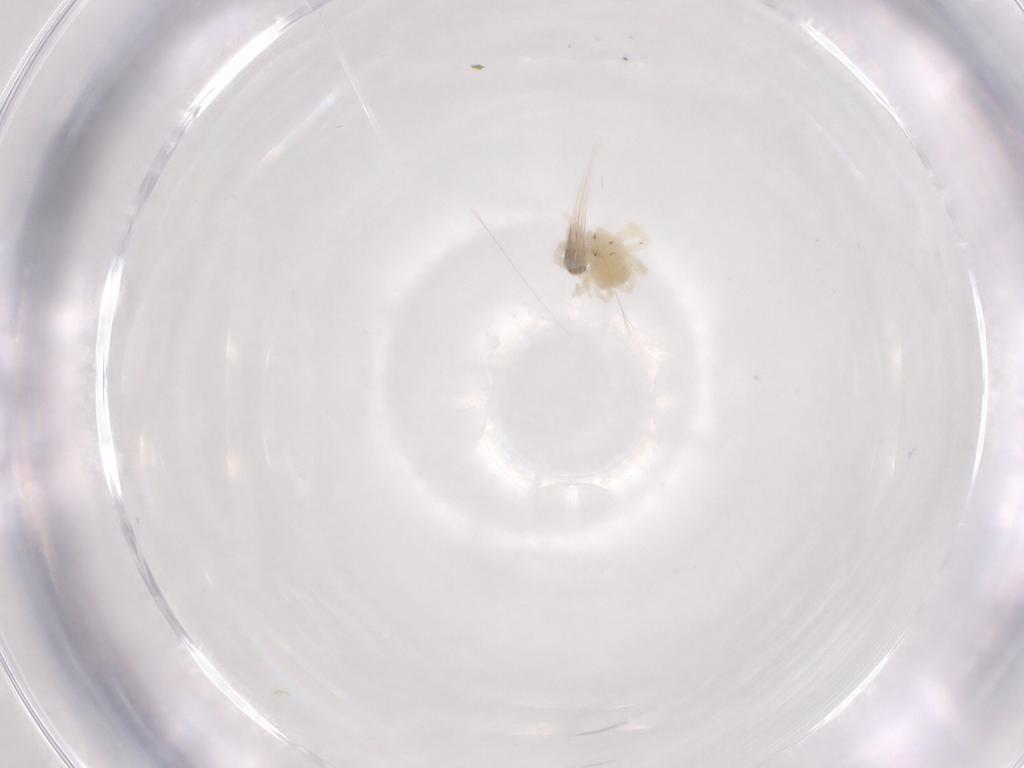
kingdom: Animalia
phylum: Arthropoda
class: Arachnida
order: Trombidiformes
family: Anystidae
